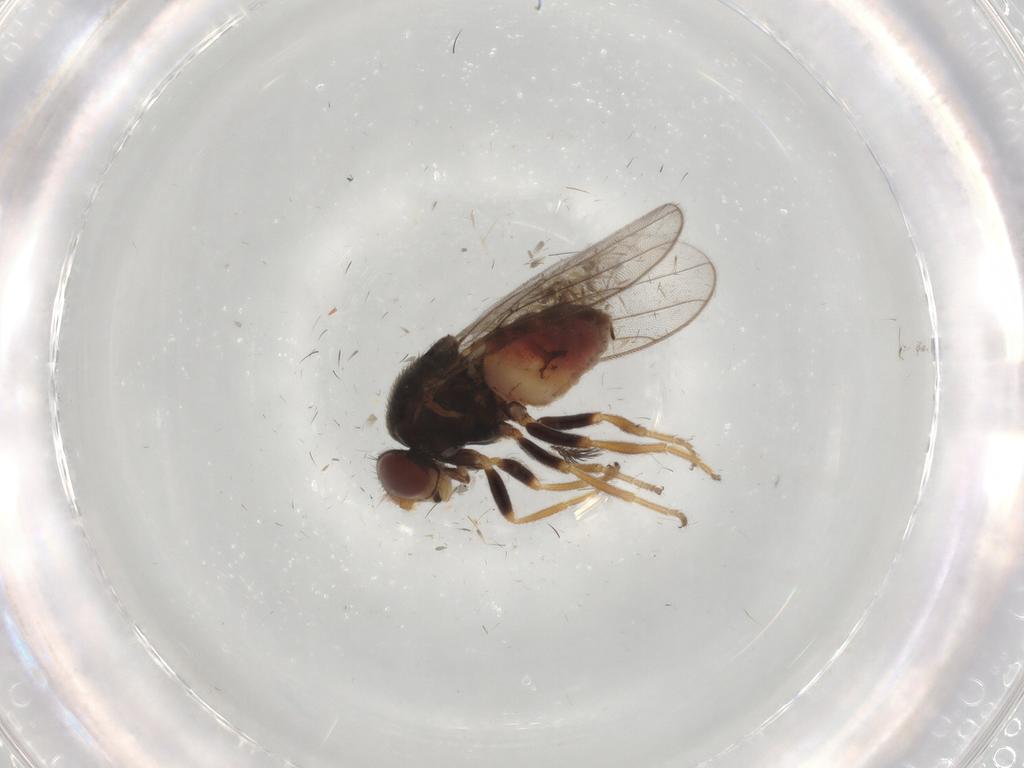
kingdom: Animalia
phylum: Arthropoda
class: Insecta
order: Diptera
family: Chloropidae
